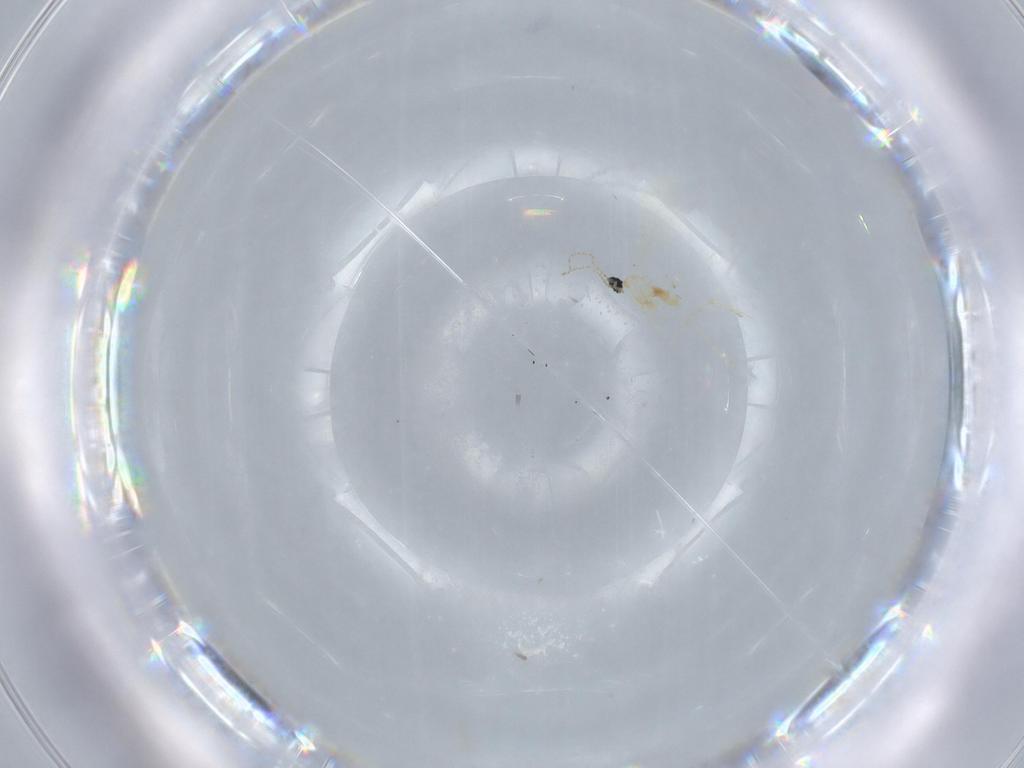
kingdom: Animalia
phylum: Arthropoda
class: Insecta
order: Diptera
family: Cecidomyiidae
